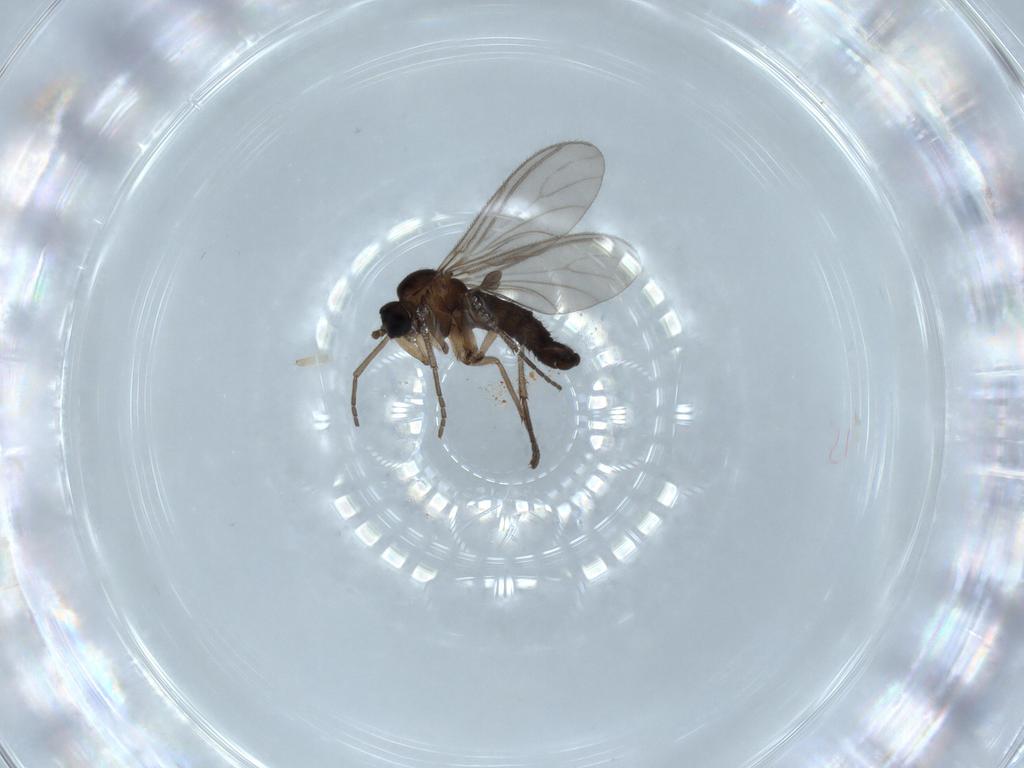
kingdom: Animalia
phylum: Arthropoda
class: Insecta
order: Diptera
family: Sciaridae
